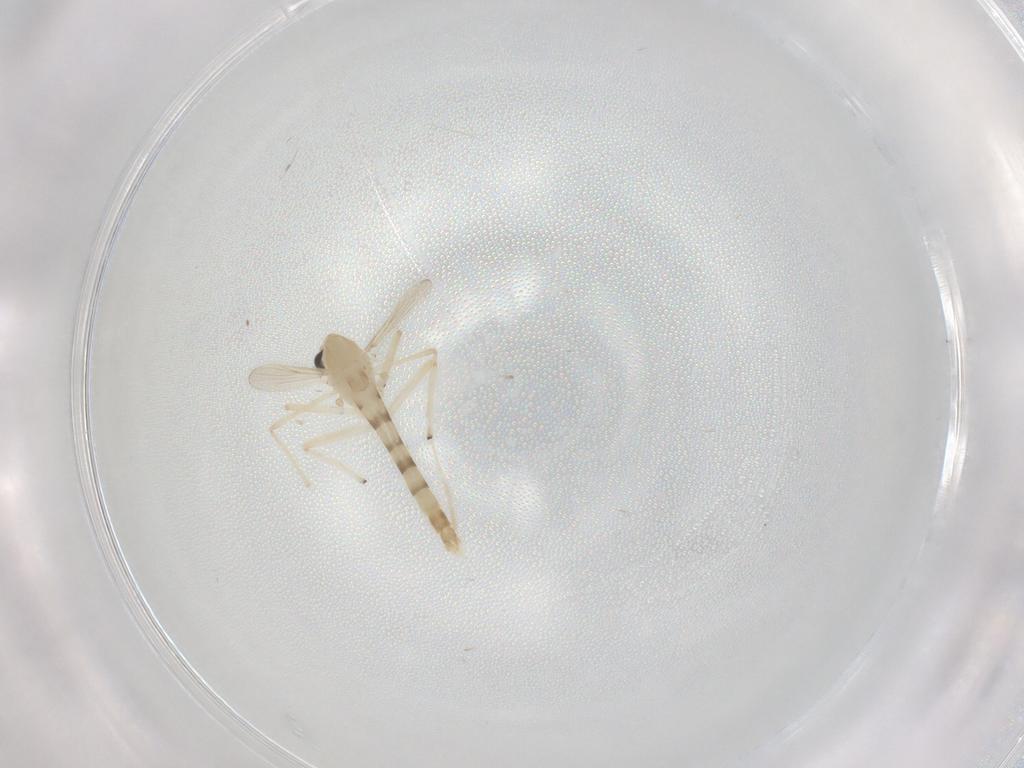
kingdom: Animalia
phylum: Arthropoda
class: Insecta
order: Diptera
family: Chironomidae
